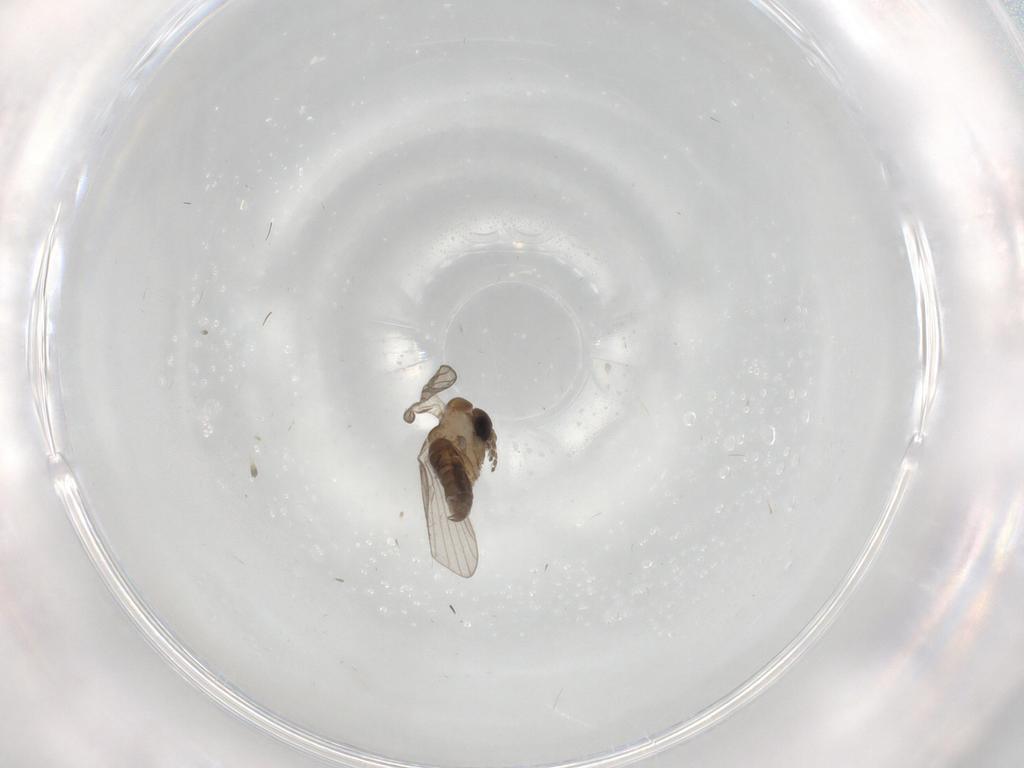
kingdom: Animalia
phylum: Arthropoda
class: Insecta
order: Diptera
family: Psychodidae
